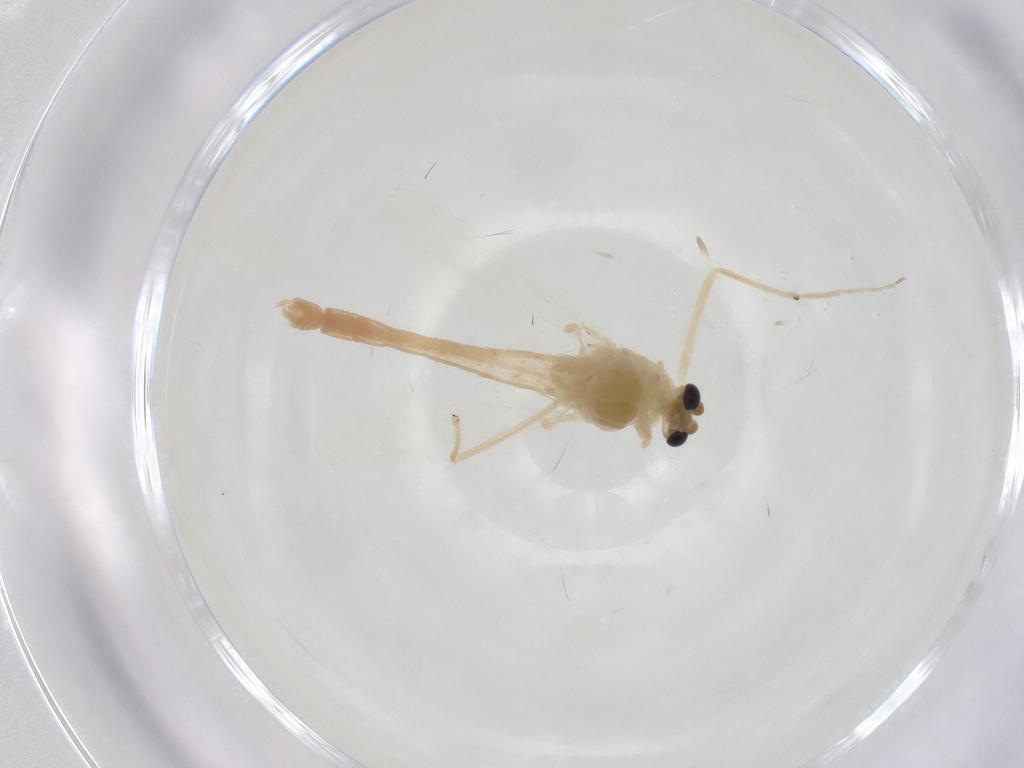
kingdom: Animalia
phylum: Arthropoda
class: Insecta
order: Diptera
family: Chironomidae
